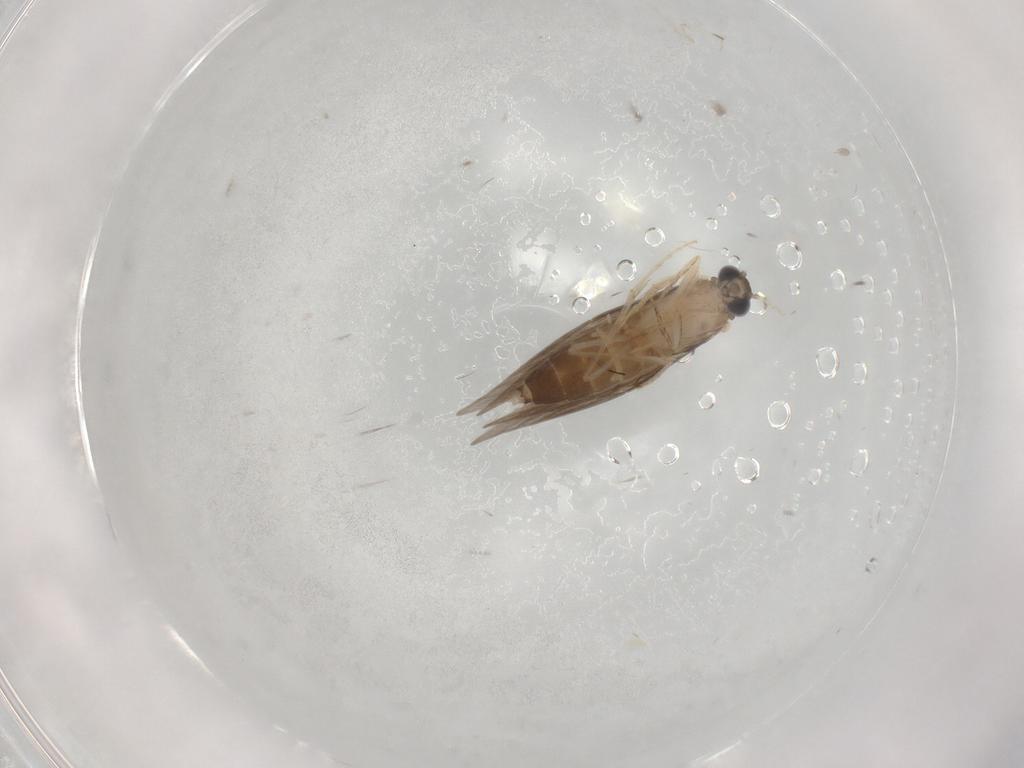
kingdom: Animalia
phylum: Arthropoda
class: Insecta
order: Trichoptera
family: Hydroptilidae
